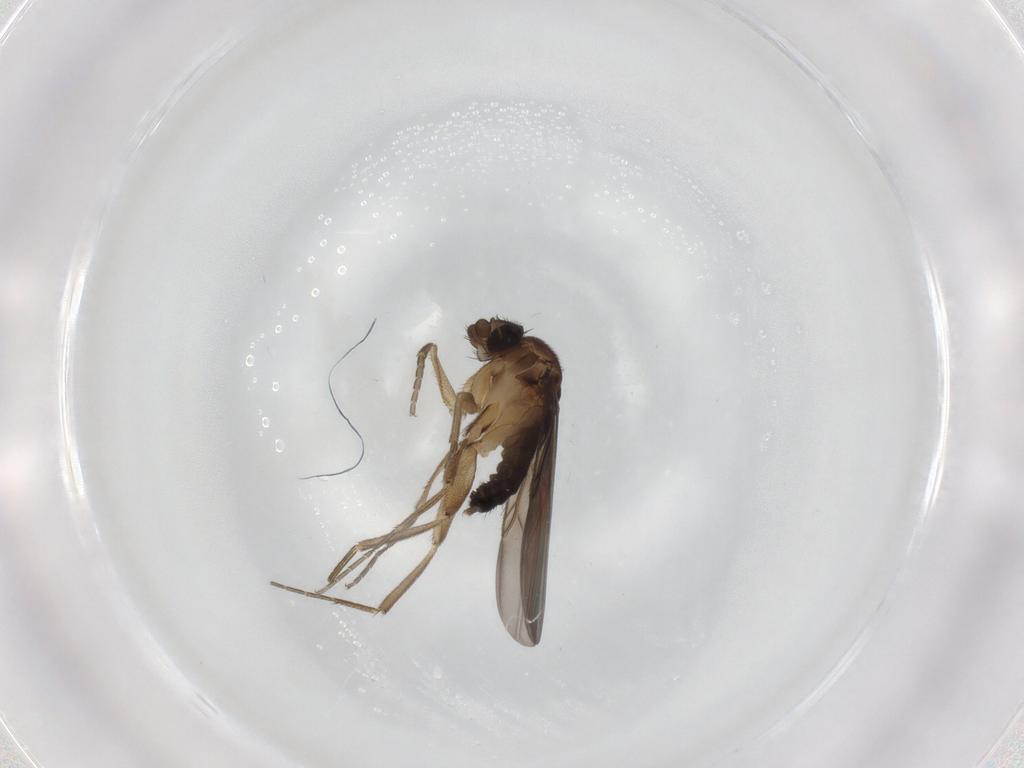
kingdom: Animalia
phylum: Arthropoda
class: Insecta
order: Diptera
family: Phoridae
